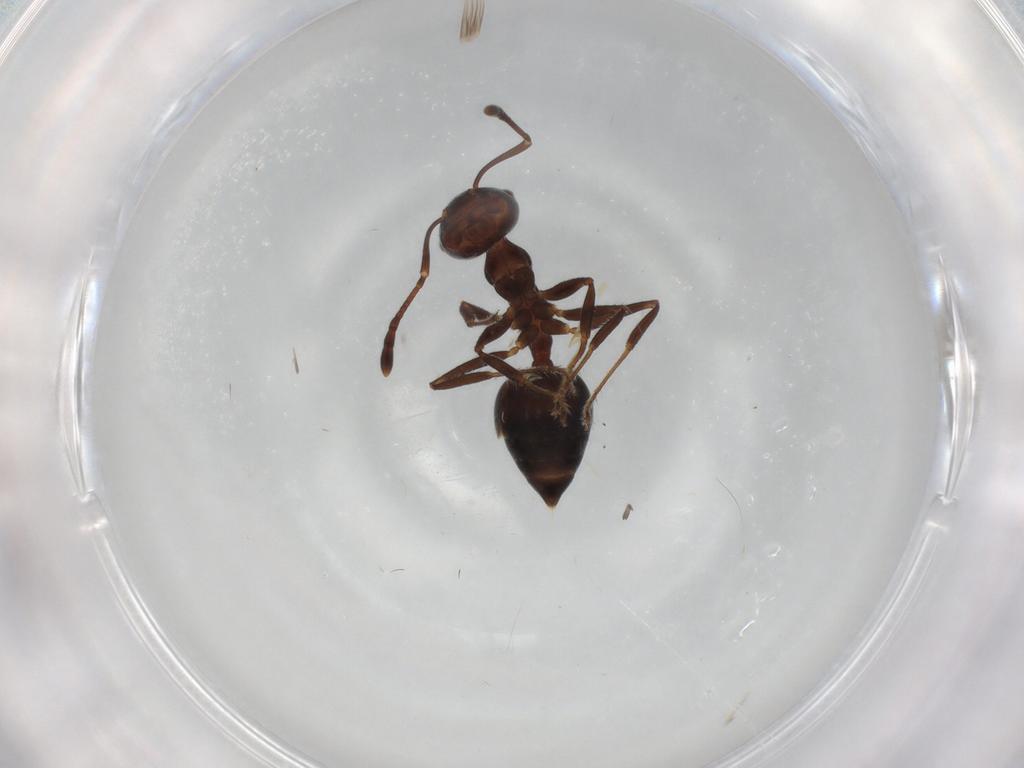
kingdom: Animalia
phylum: Arthropoda
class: Insecta
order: Hymenoptera
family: Diapriidae
